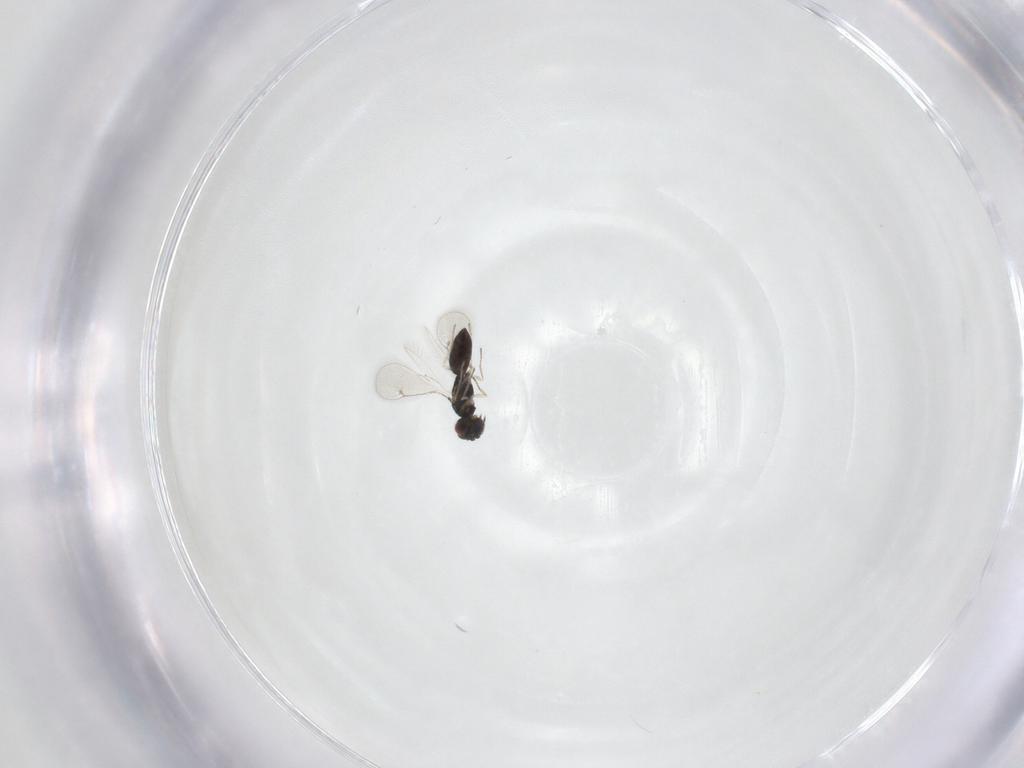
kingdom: Animalia
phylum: Arthropoda
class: Insecta
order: Hymenoptera
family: Eulophidae
